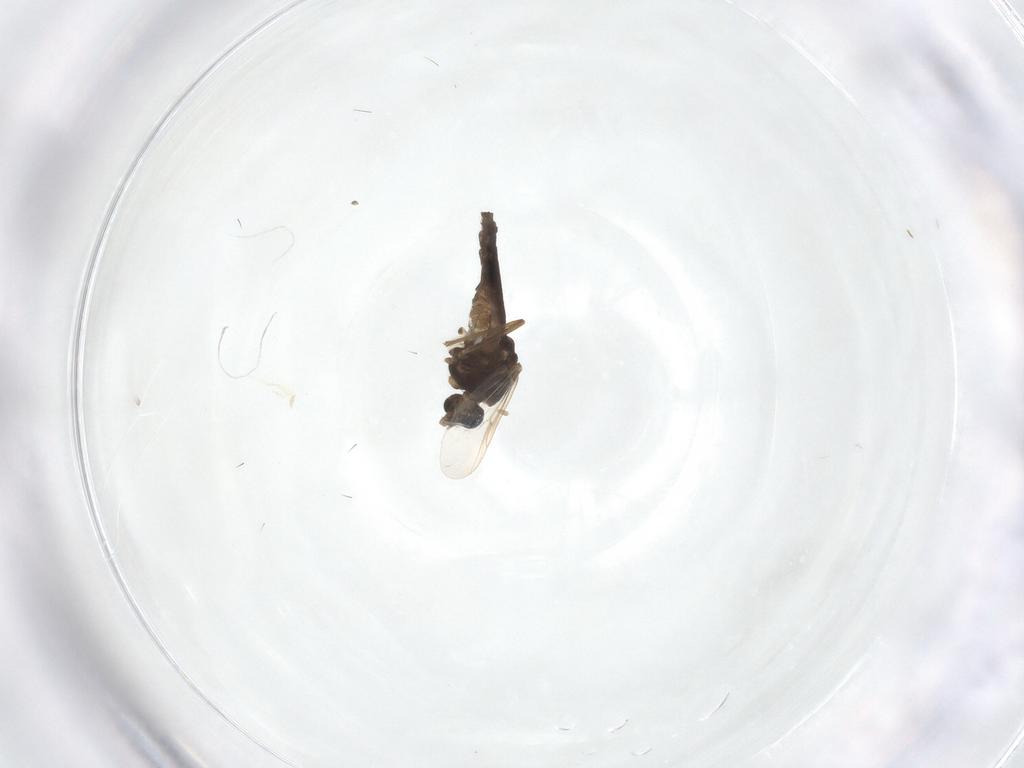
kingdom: Animalia
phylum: Arthropoda
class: Insecta
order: Diptera
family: Chironomidae
